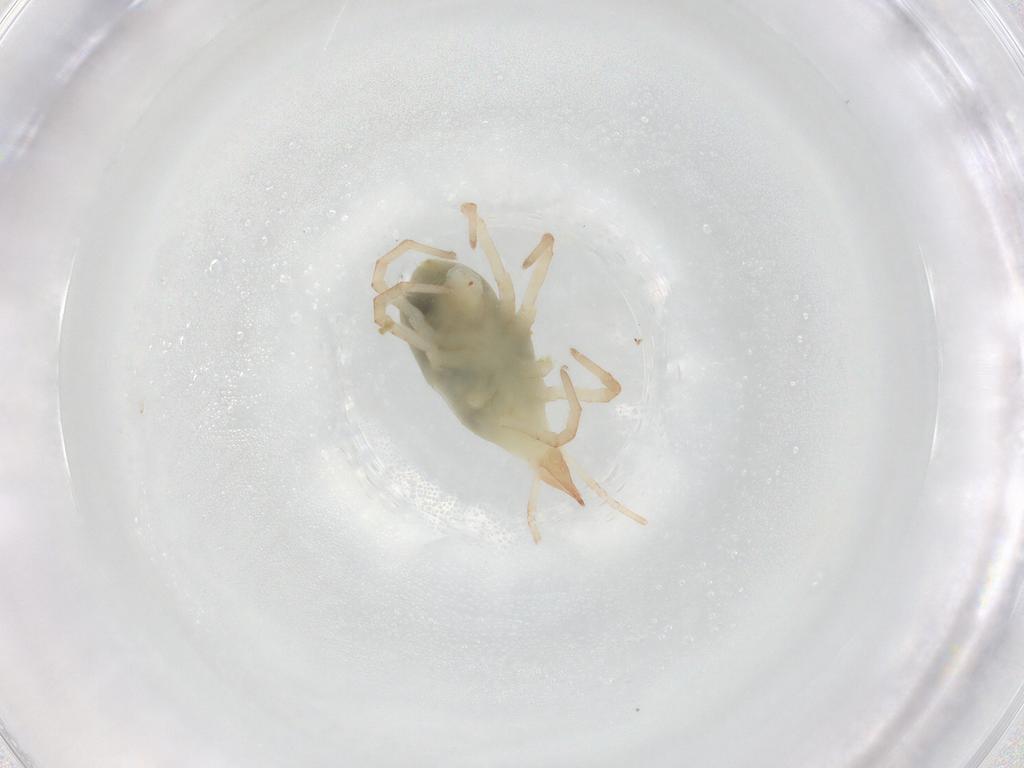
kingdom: Animalia
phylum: Arthropoda
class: Arachnida
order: Trombidiformes
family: Bdellidae
